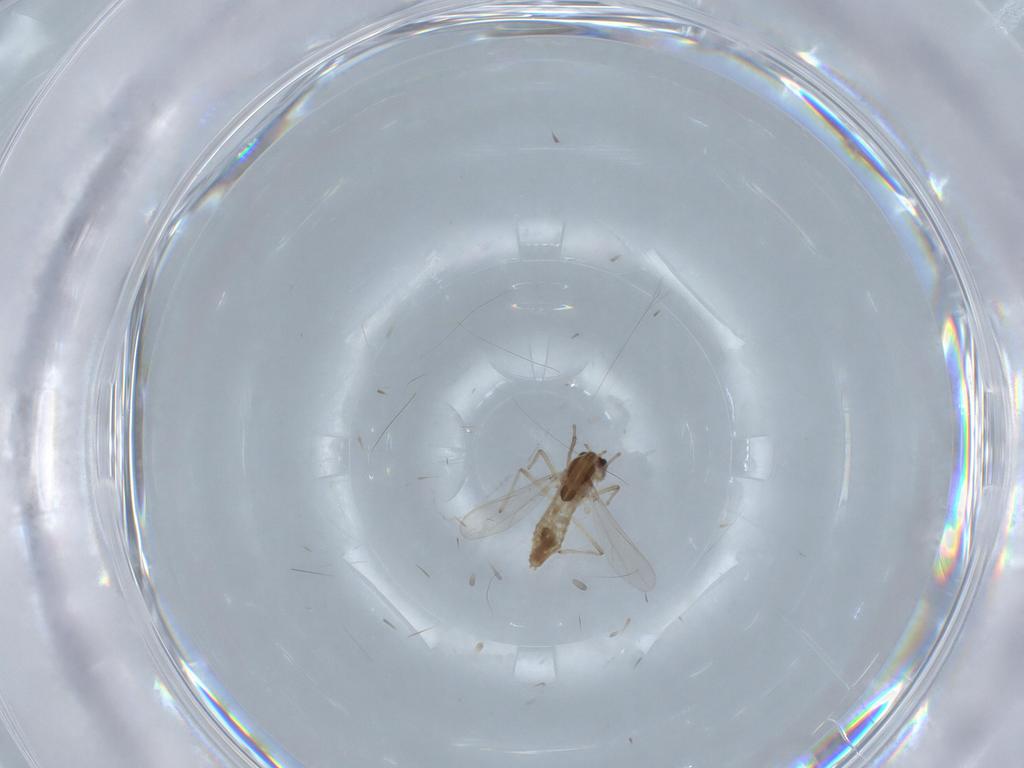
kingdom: Animalia
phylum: Arthropoda
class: Insecta
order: Diptera
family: Chironomidae
